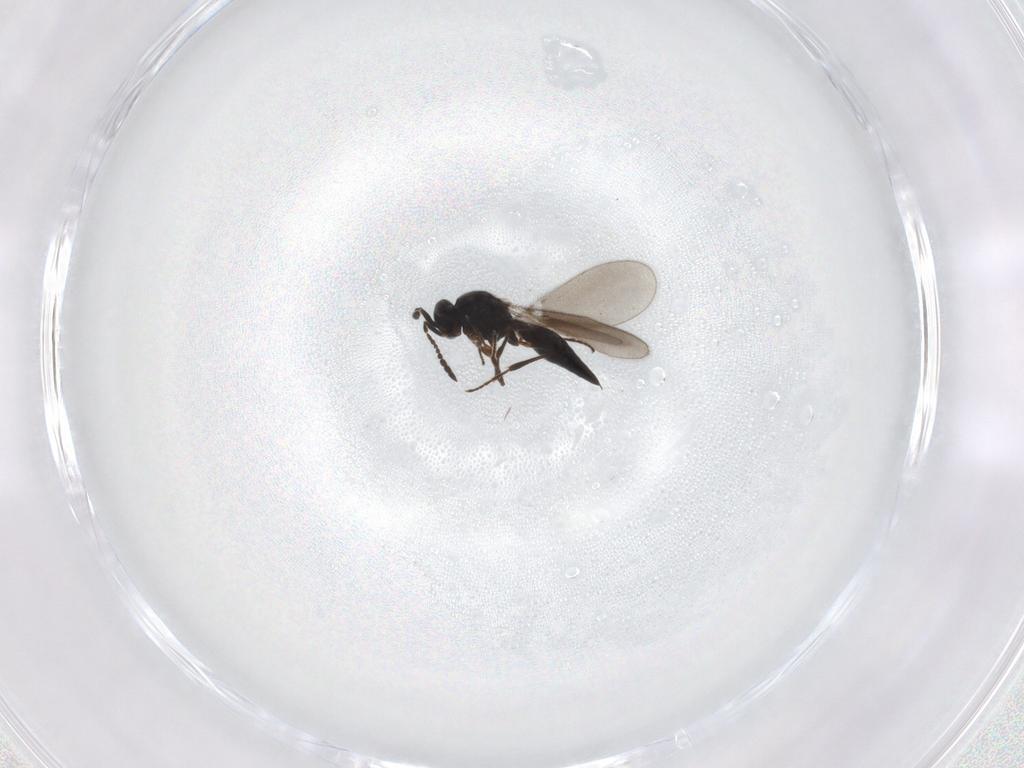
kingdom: Animalia
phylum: Arthropoda
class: Insecta
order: Hymenoptera
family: Platygastridae
